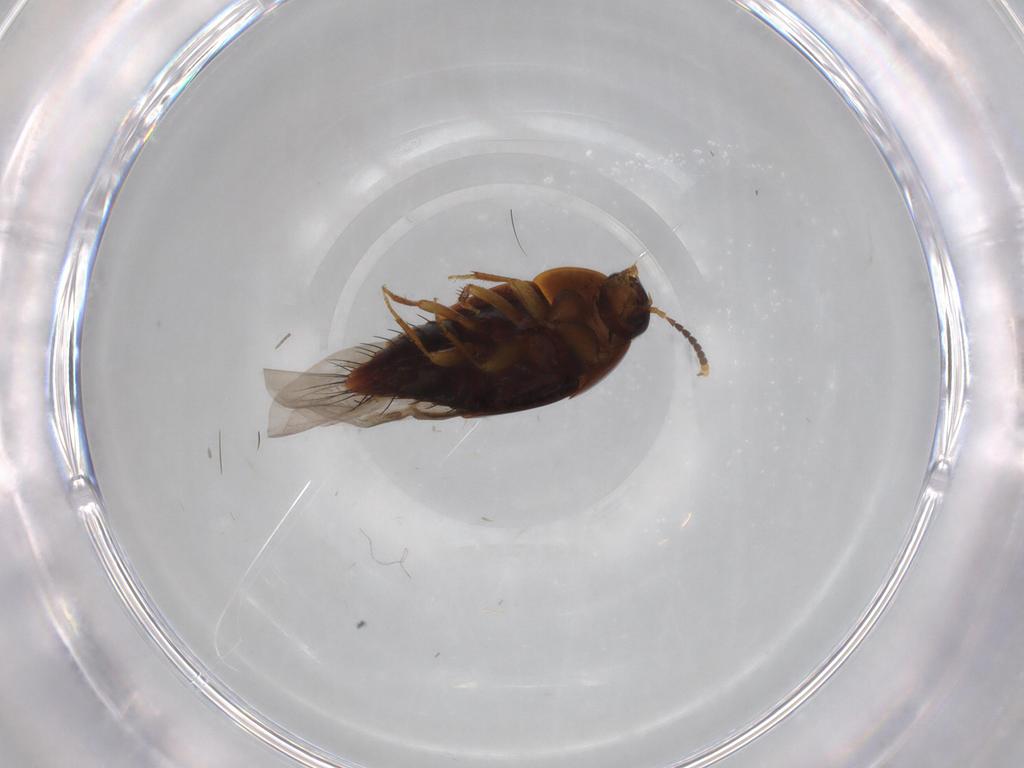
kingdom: Animalia
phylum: Arthropoda
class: Insecta
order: Coleoptera
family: Staphylinidae
